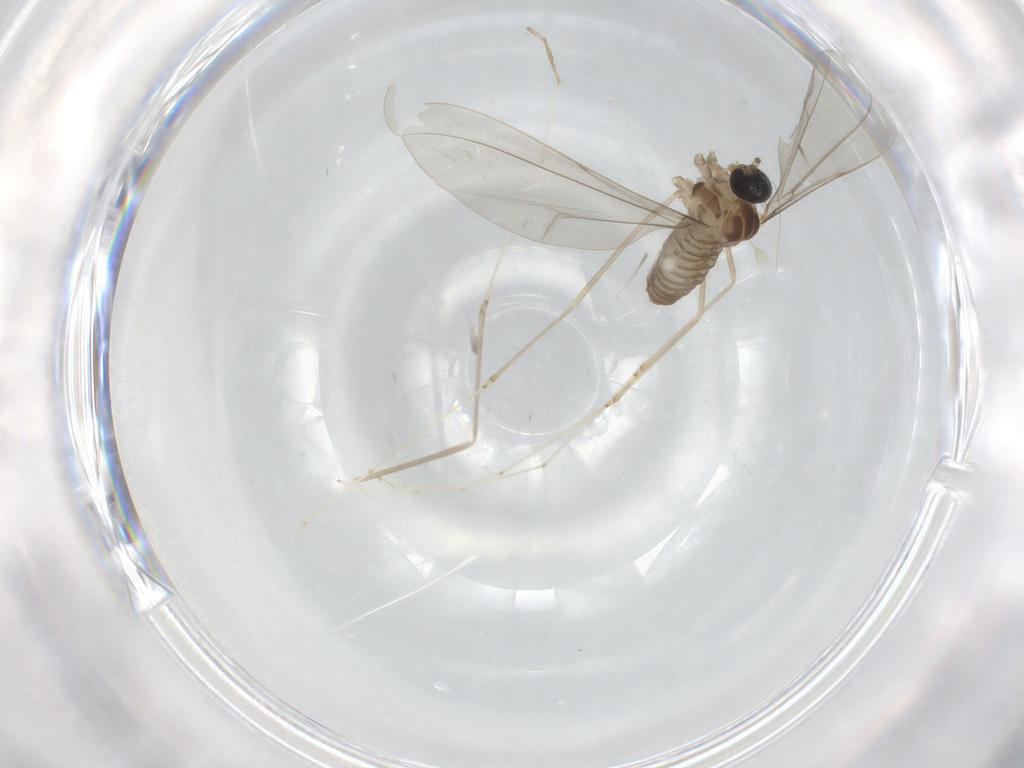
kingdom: Animalia
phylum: Arthropoda
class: Insecta
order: Diptera
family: Cecidomyiidae
